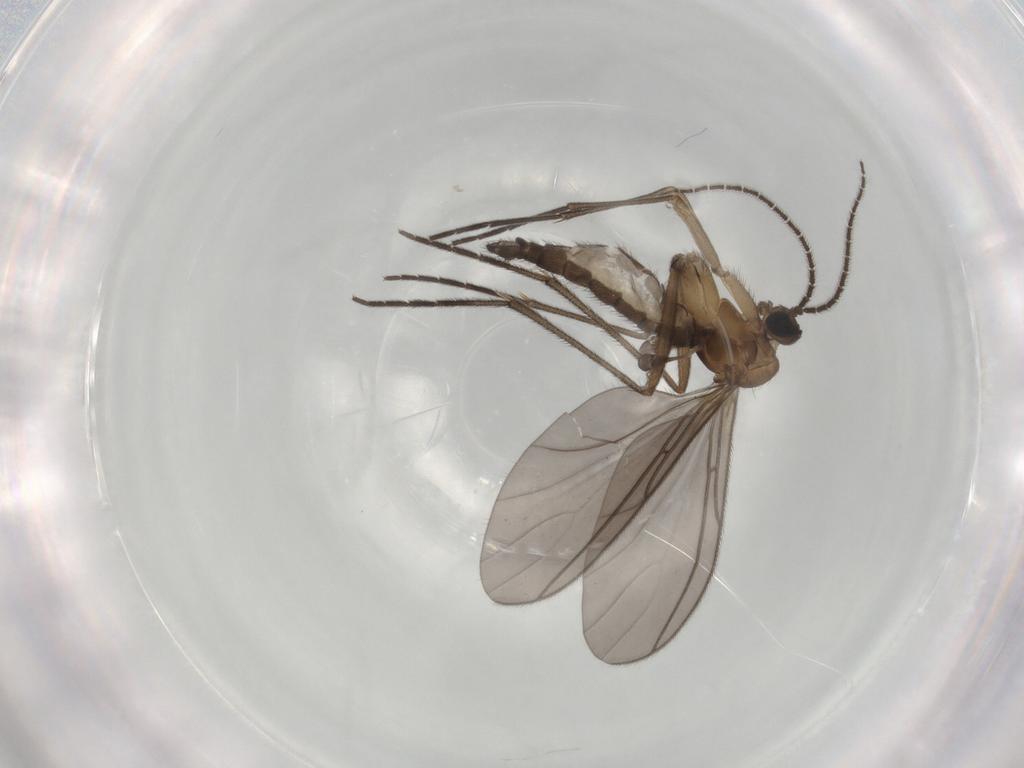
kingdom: Animalia
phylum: Arthropoda
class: Insecta
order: Diptera
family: Sciaridae
